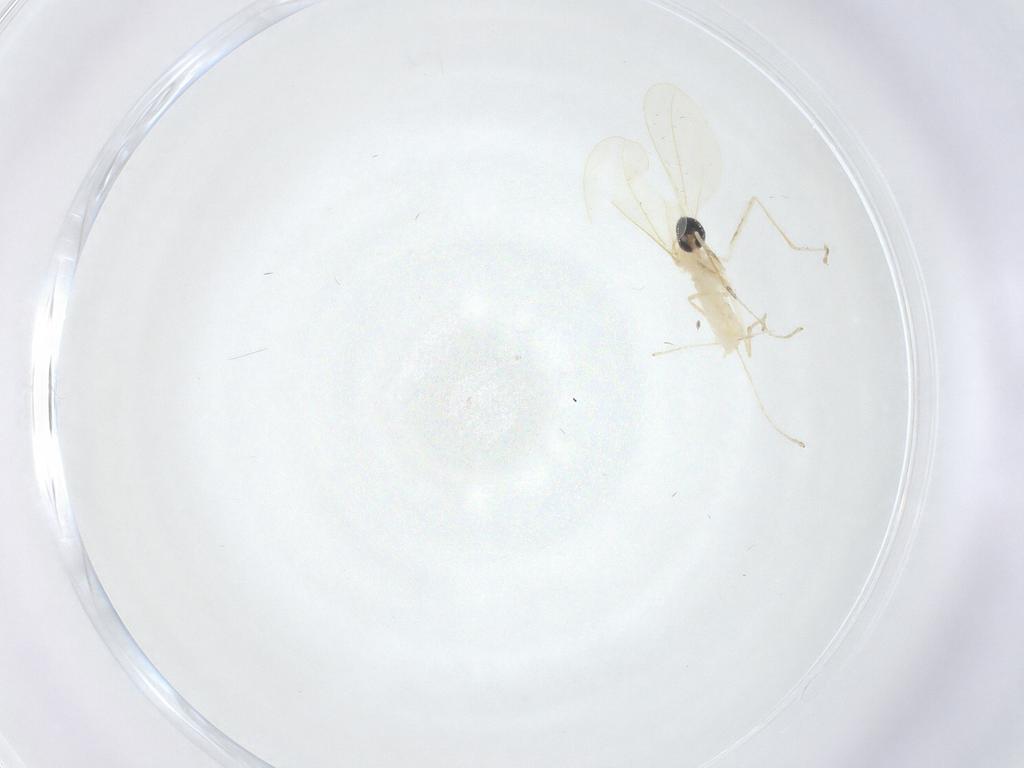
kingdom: Animalia
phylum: Arthropoda
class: Insecta
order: Diptera
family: Cecidomyiidae
